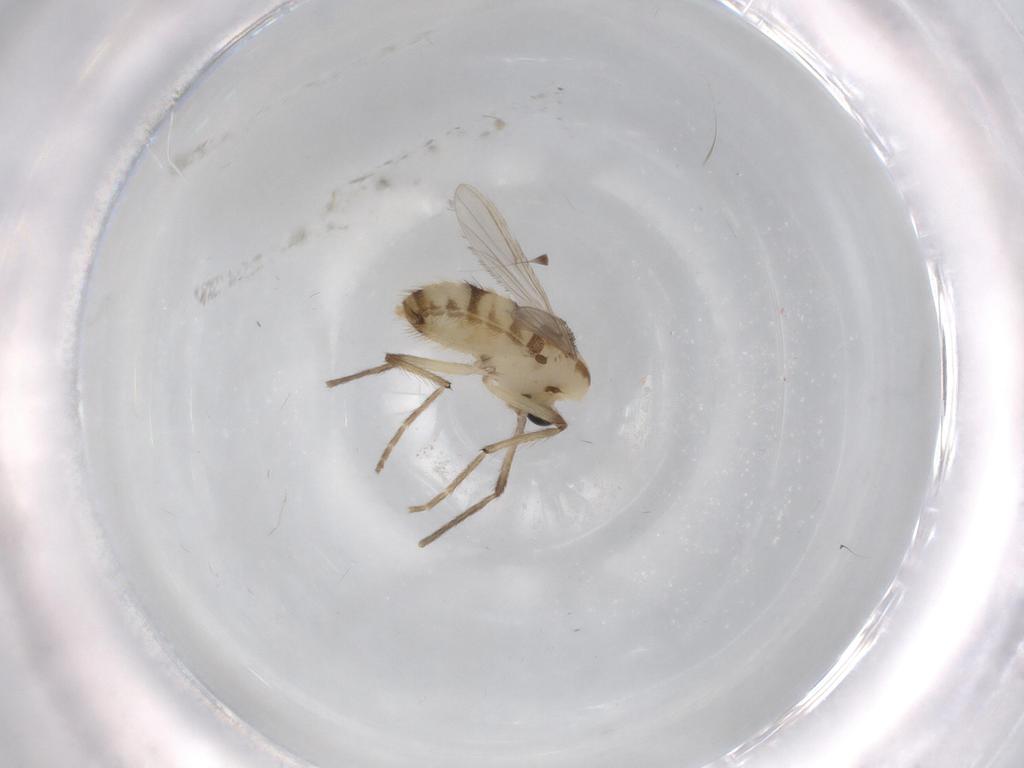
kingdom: Animalia
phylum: Arthropoda
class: Insecta
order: Diptera
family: Chironomidae
